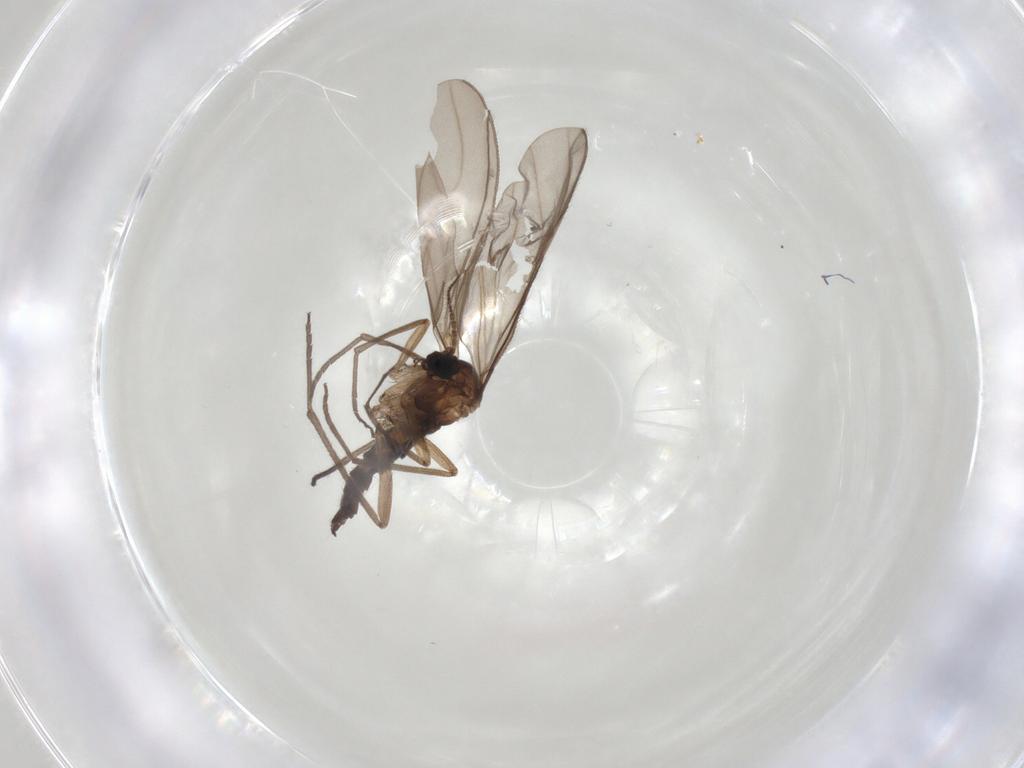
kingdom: Animalia
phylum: Arthropoda
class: Insecta
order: Diptera
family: Sciaridae
